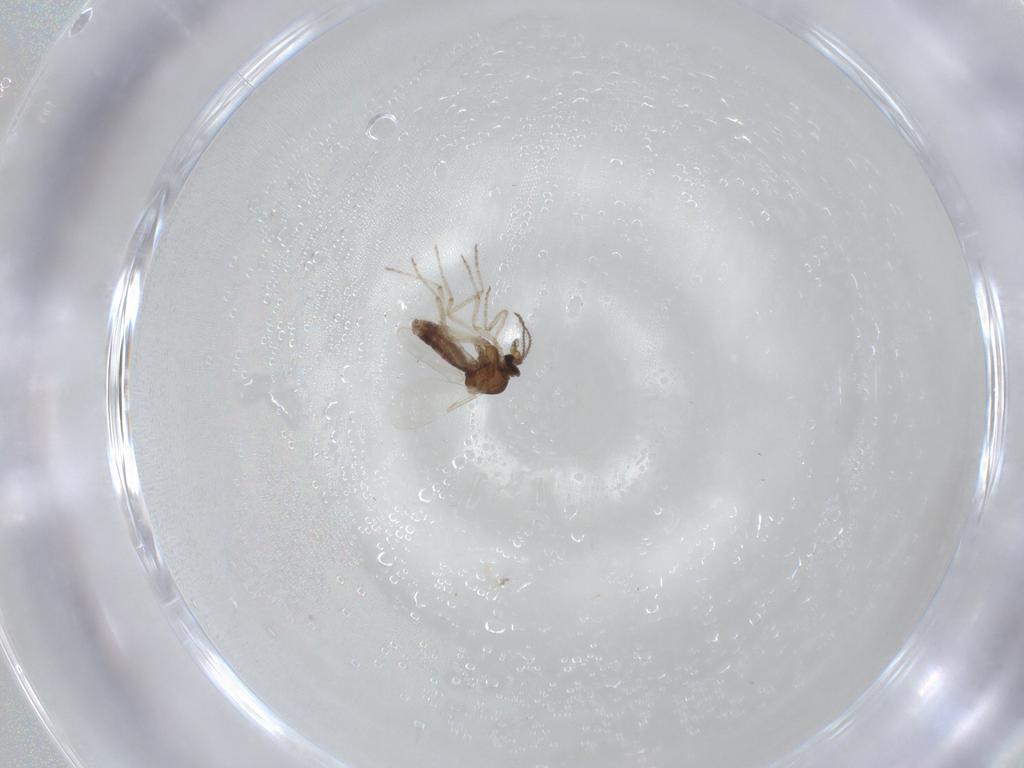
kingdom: Animalia
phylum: Arthropoda
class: Insecta
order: Diptera
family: Ceratopogonidae
